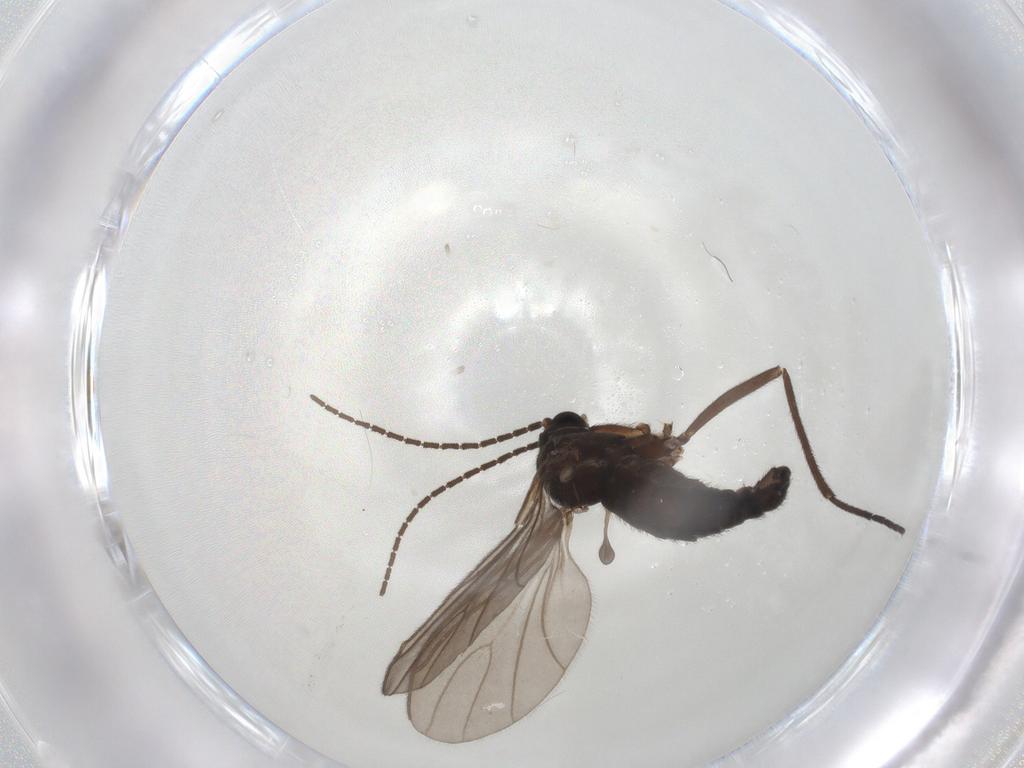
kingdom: Animalia
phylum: Arthropoda
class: Insecta
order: Diptera
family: Sciaridae
